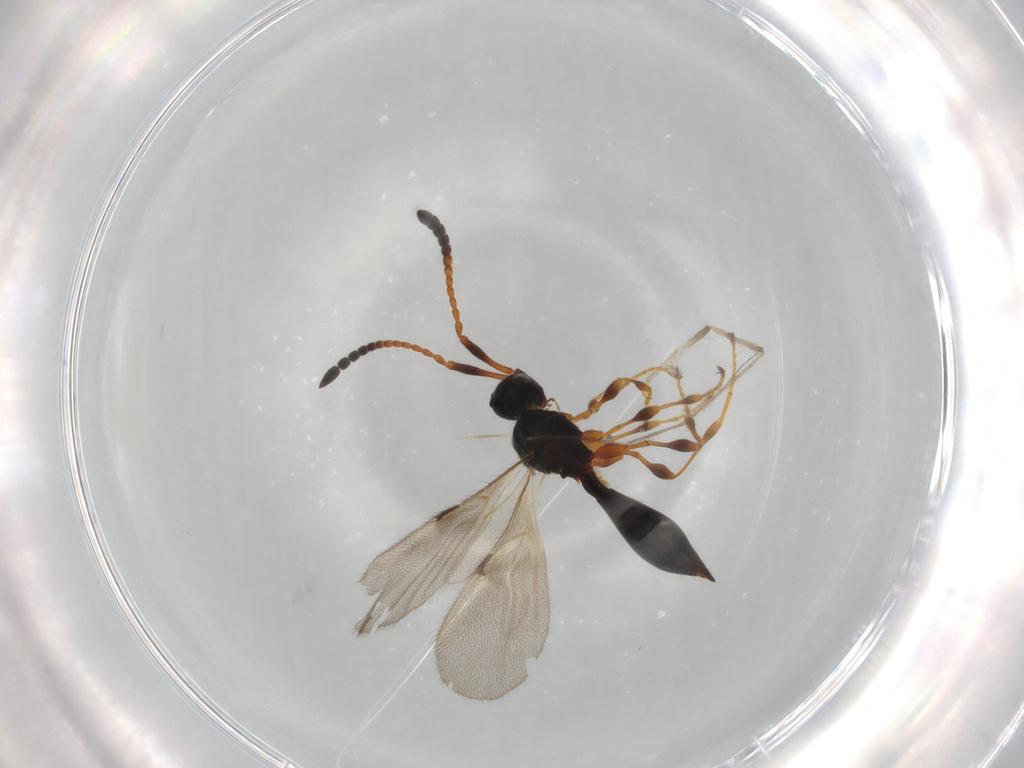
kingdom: Animalia
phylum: Arthropoda
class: Insecta
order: Hymenoptera
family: Diapriidae
